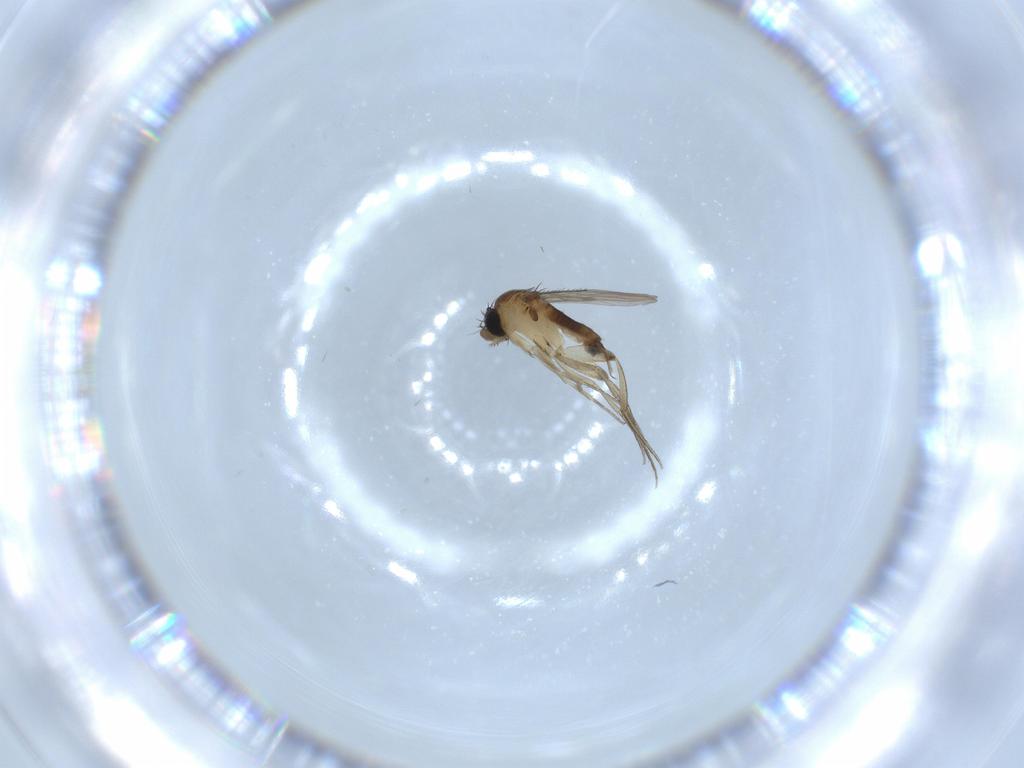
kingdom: Animalia
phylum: Arthropoda
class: Insecta
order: Diptera
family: Phoridae
